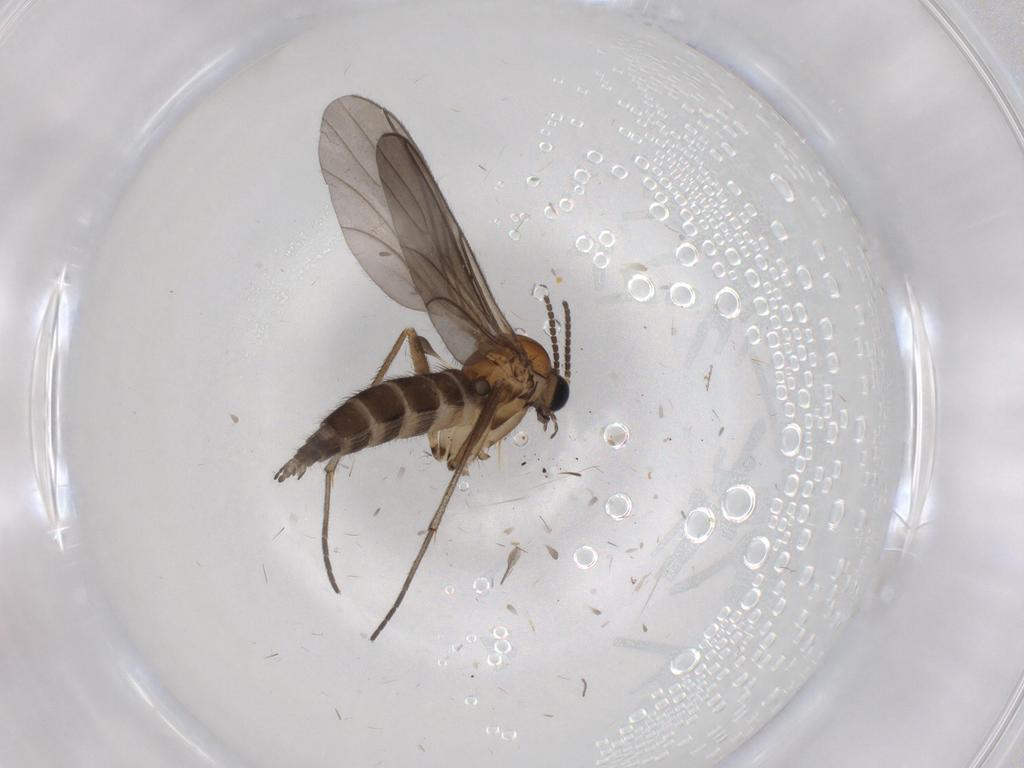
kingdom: Animalia
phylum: Arthropoda
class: Insecta
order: Diptera
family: Sciaridae
